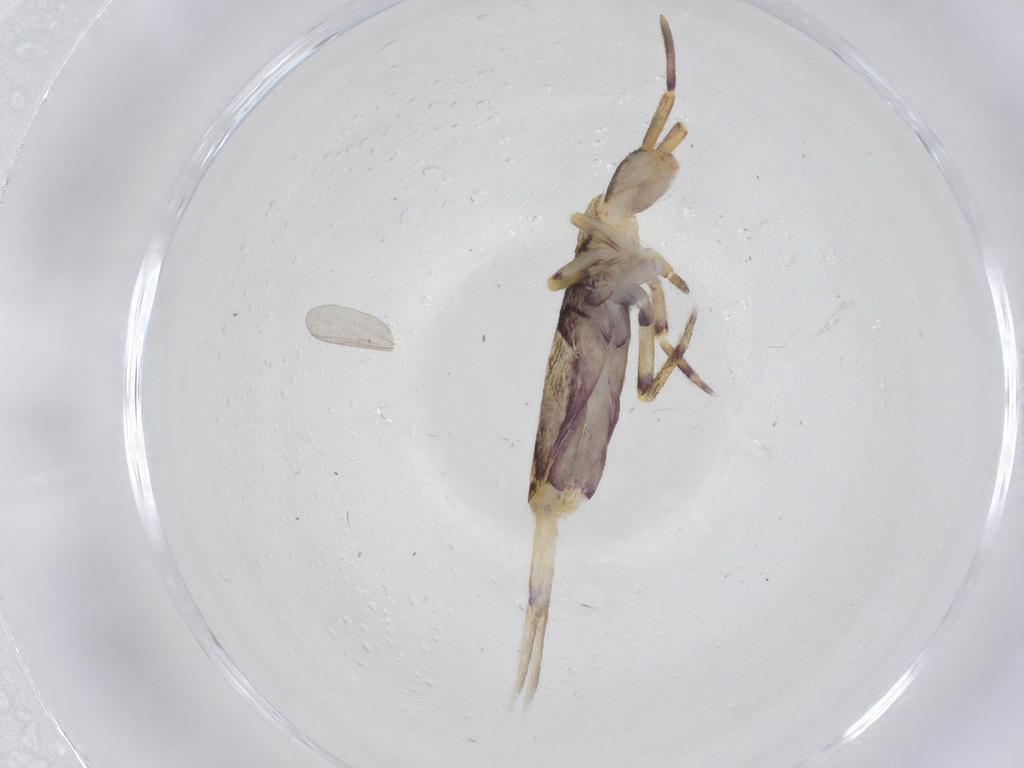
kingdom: Animalia
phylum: Arthropoda
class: Collembola
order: Entomobryomorpha
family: Entomobryidae
